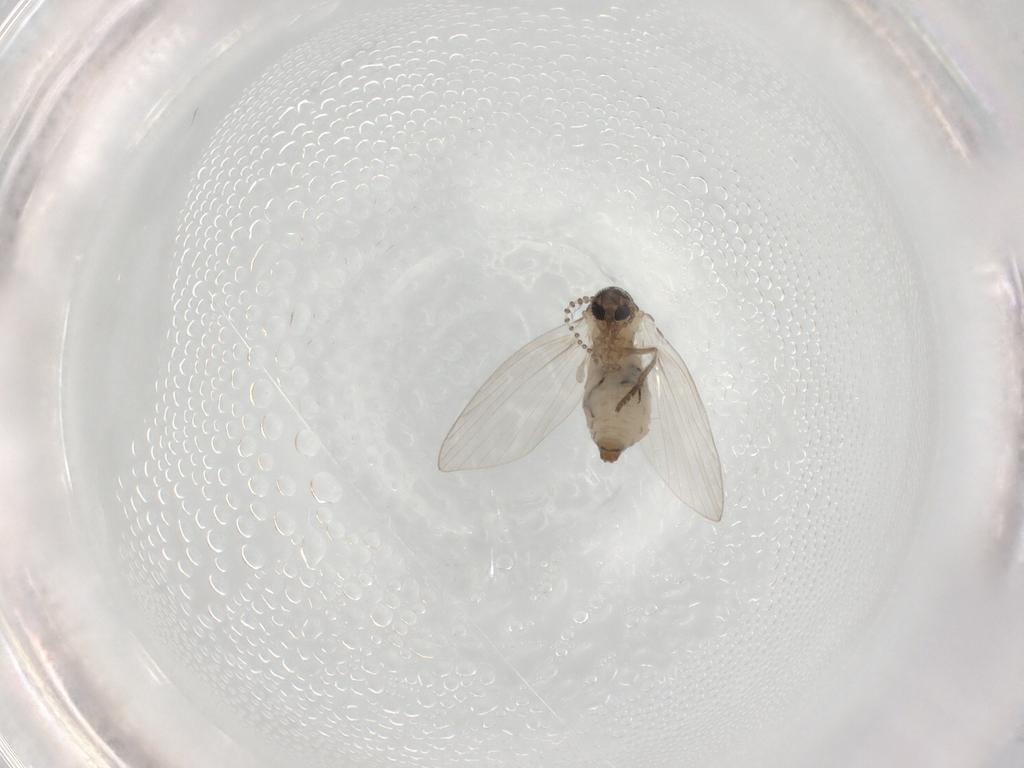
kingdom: Animalia
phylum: Arthropoda
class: Insecta
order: Diptera
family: Psychodidae
